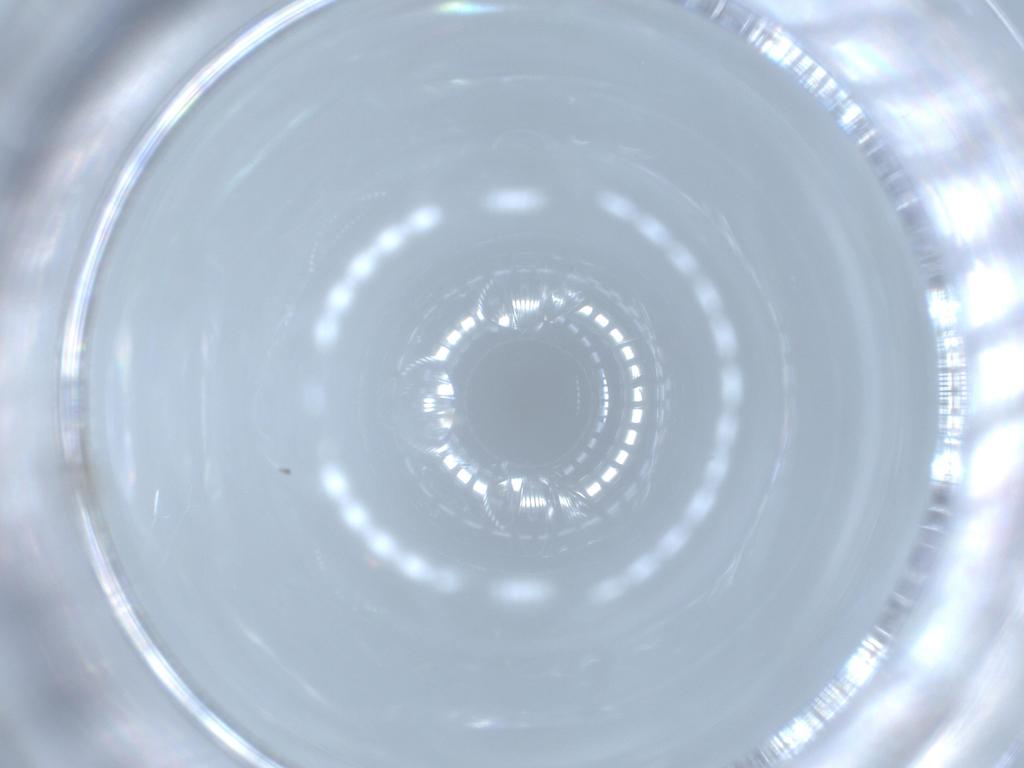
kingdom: Animalia
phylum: Arthropoda
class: Insecta
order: Diptera
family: Cecidomyiidae
